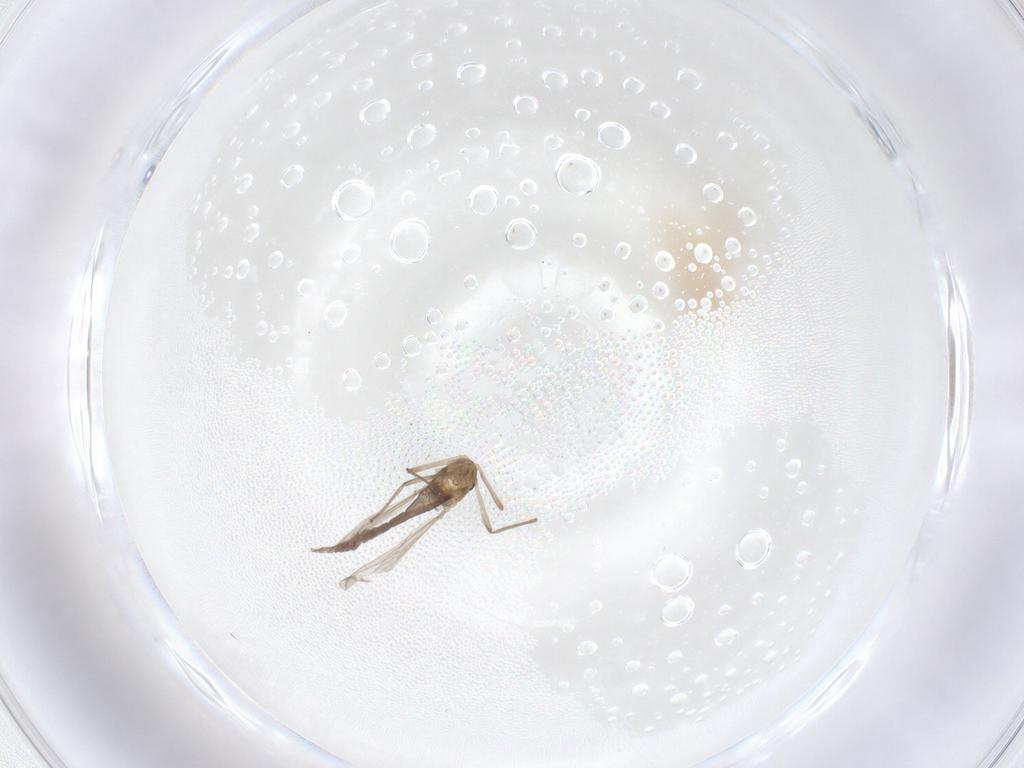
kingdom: Animalia
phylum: Arthropoda
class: Insecta
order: Diptera
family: Chironomidae
